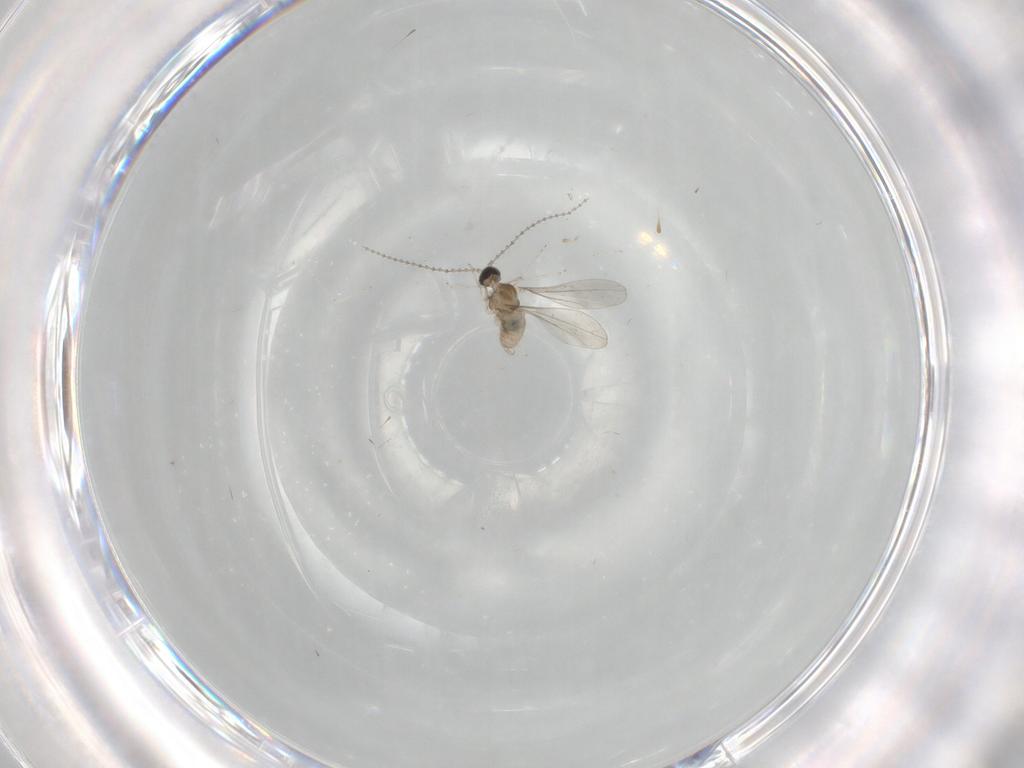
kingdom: Animalia
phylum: Arthropoda
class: Insecta
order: Diptera
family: Cecidomyiidae
